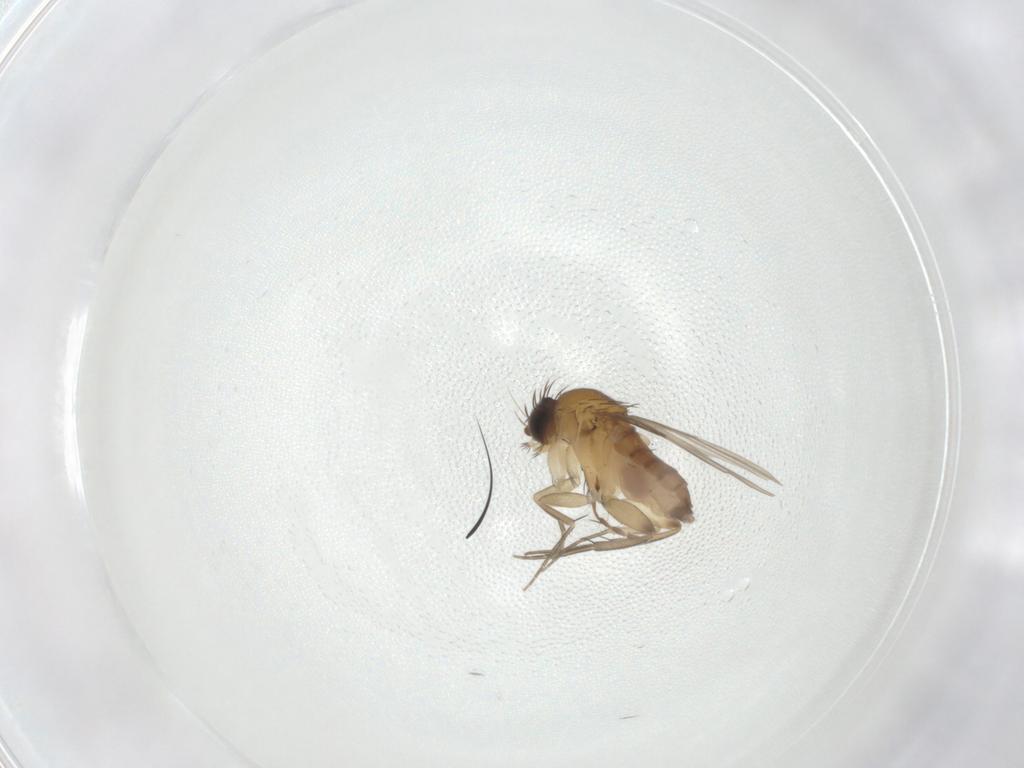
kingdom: Animalia
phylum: Arthropoda
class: Insecta
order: Diptera
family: Phoridae
